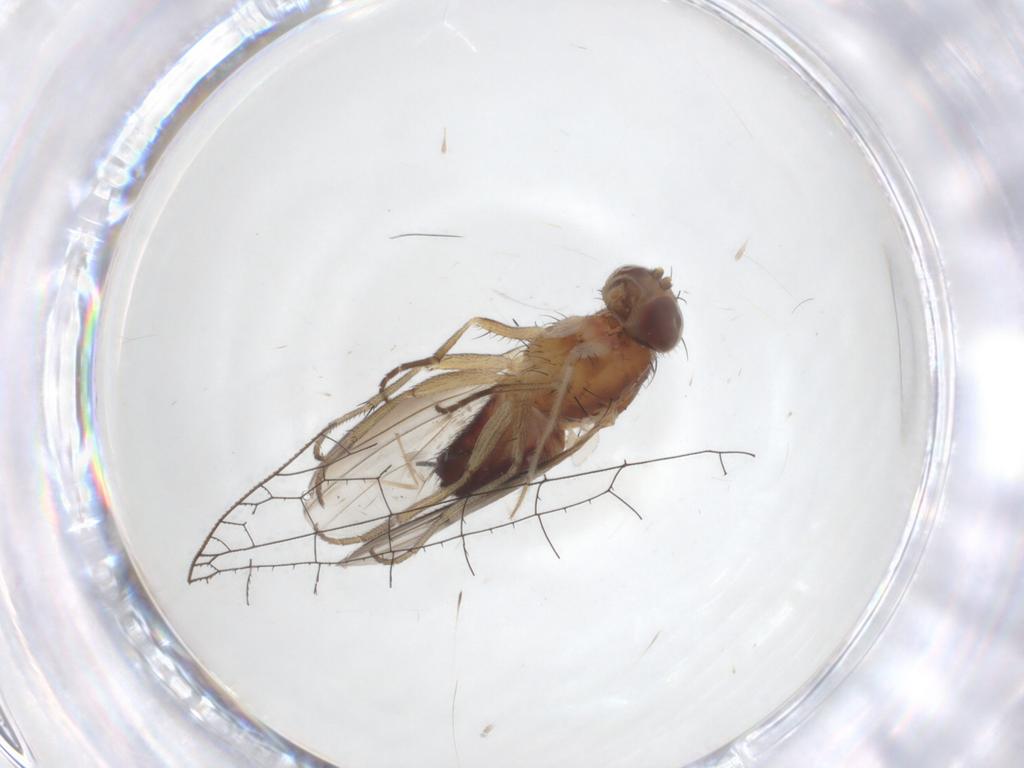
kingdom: Animalia
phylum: Arthropoda
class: Insecta
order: Diptera
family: Heleomyzidae
